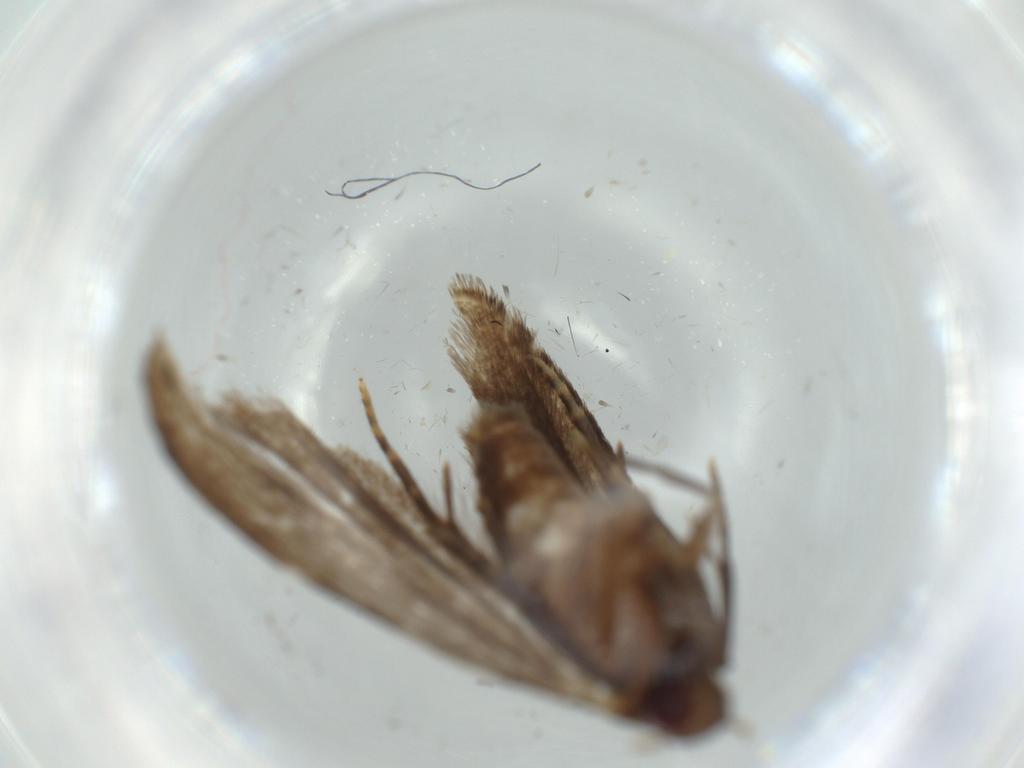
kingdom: Animalia
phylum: Arthropoda
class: Insecta
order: Lepidoptera
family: Bucculatricidae
